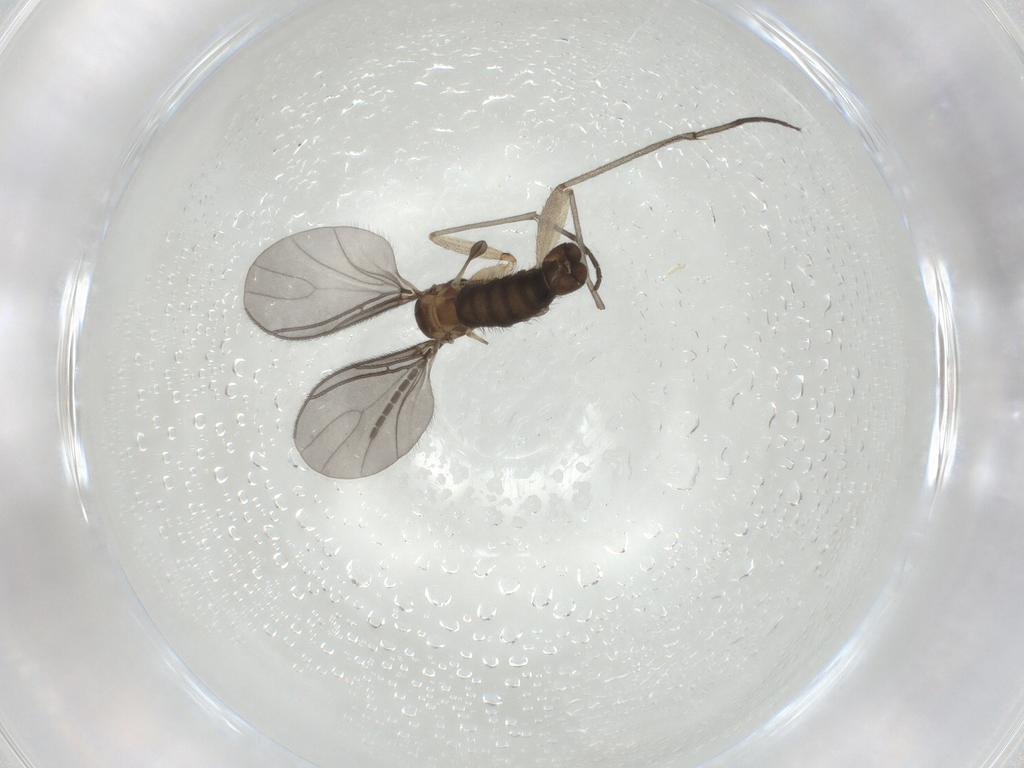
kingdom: Animalia
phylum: Arthropoda
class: Insecta
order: Diptera
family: Sciaridae
